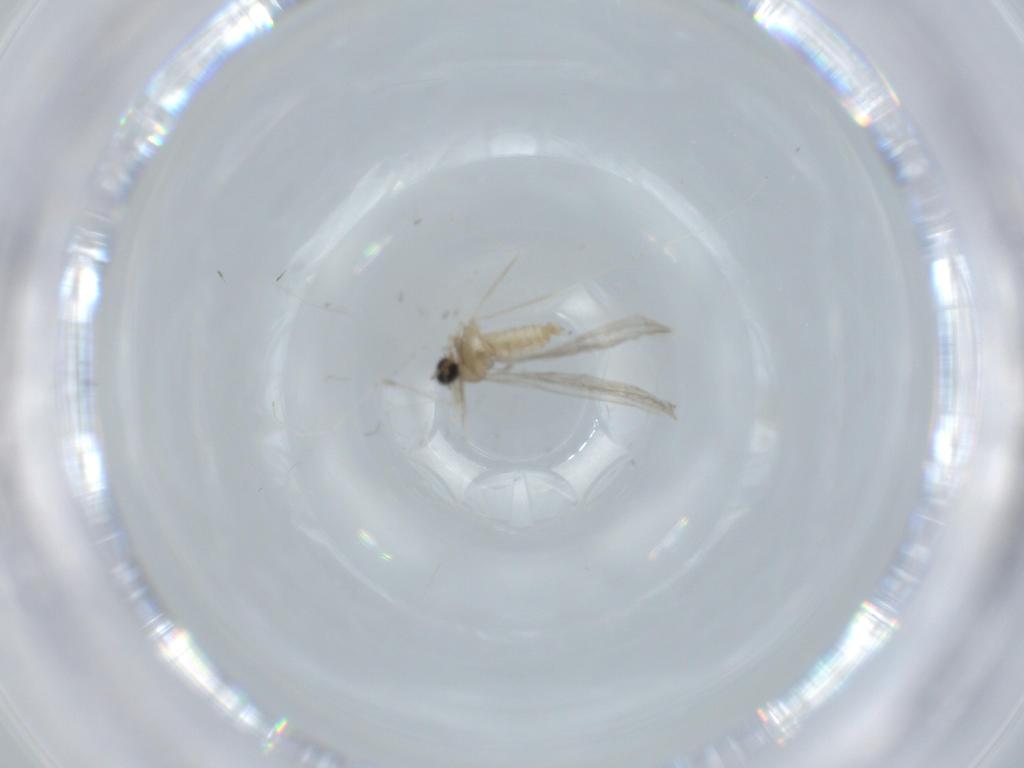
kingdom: Animalia
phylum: Arthropoda
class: Insecta
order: Diptera
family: Cecidomyiidae
